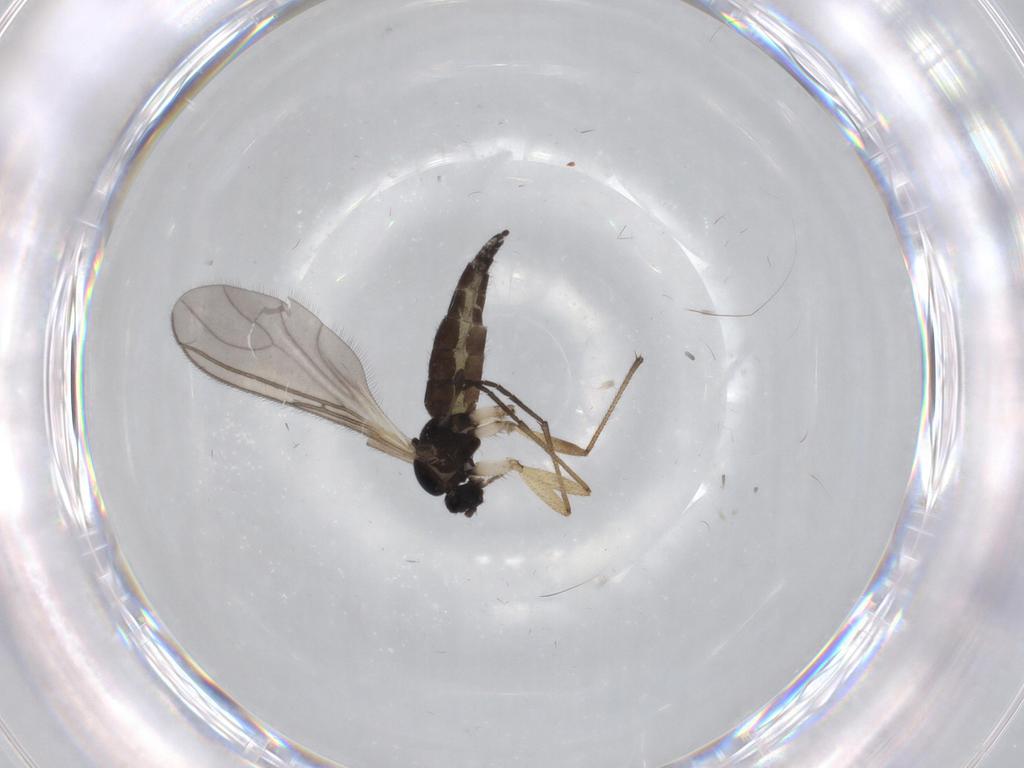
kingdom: Animalia
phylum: Arthropoda
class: Insecta
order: Diptera
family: Sciaridae
